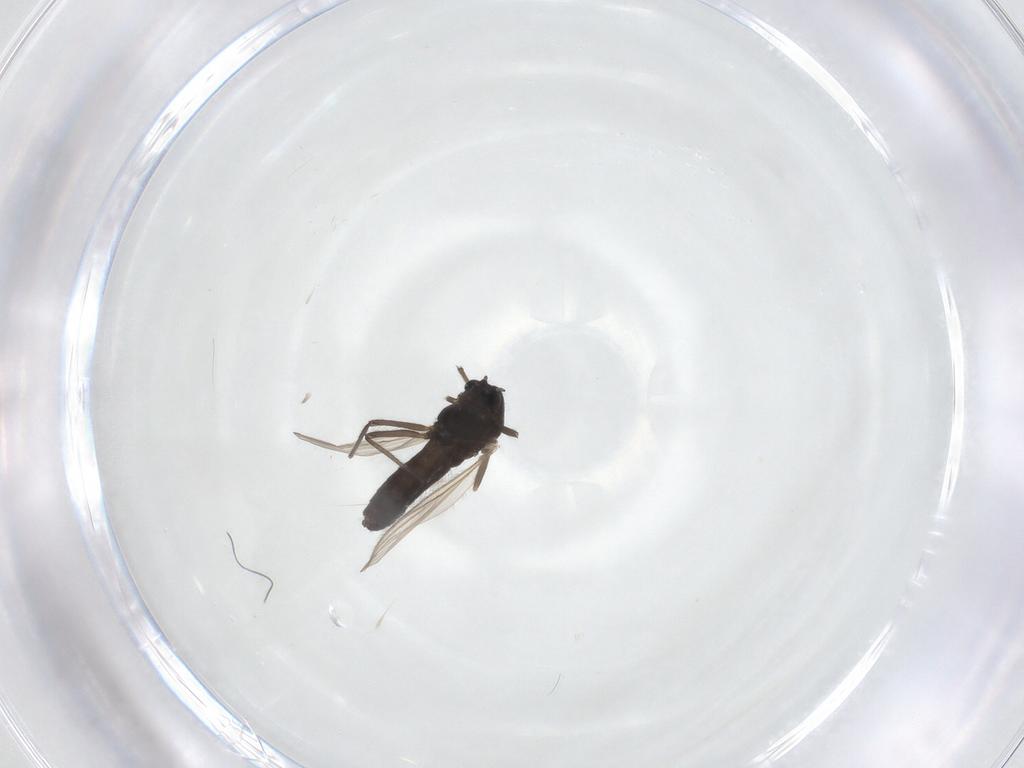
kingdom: Animalia
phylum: Arthropoda
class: Insecta
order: Diptera
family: Chironomidae
